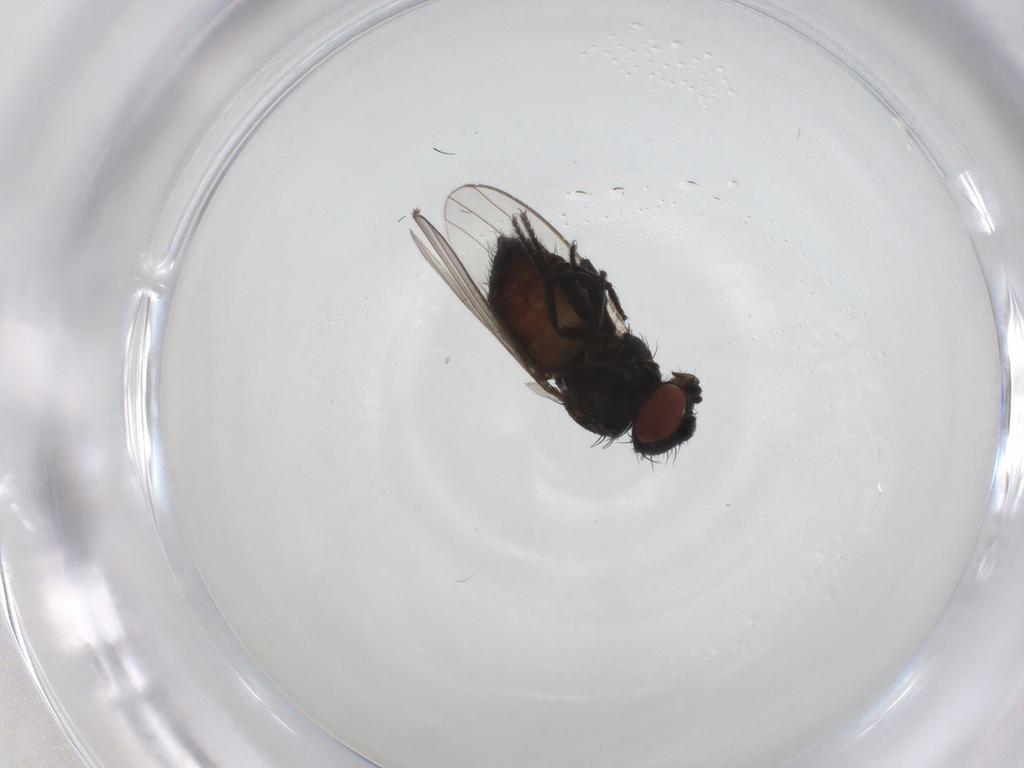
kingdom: Animalia
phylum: Arthropoda
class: Insecta
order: Diptera
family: Milichiidae
